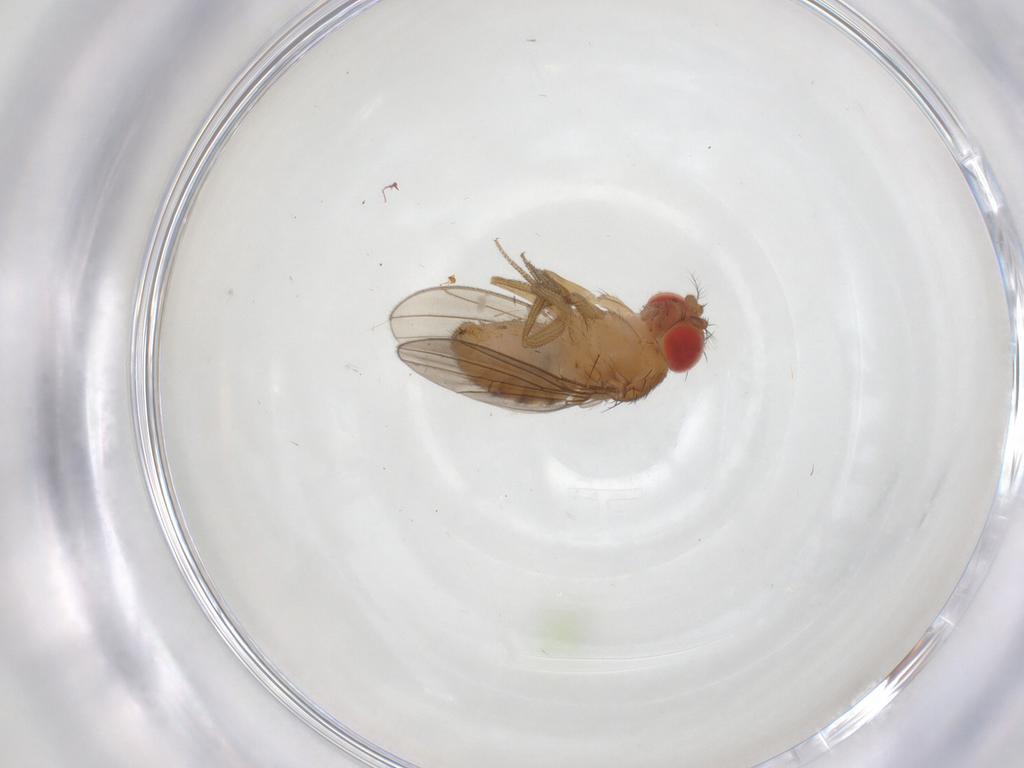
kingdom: Animalia
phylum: Arthropoda
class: Insecta
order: Diptera
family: Drosophilidae
